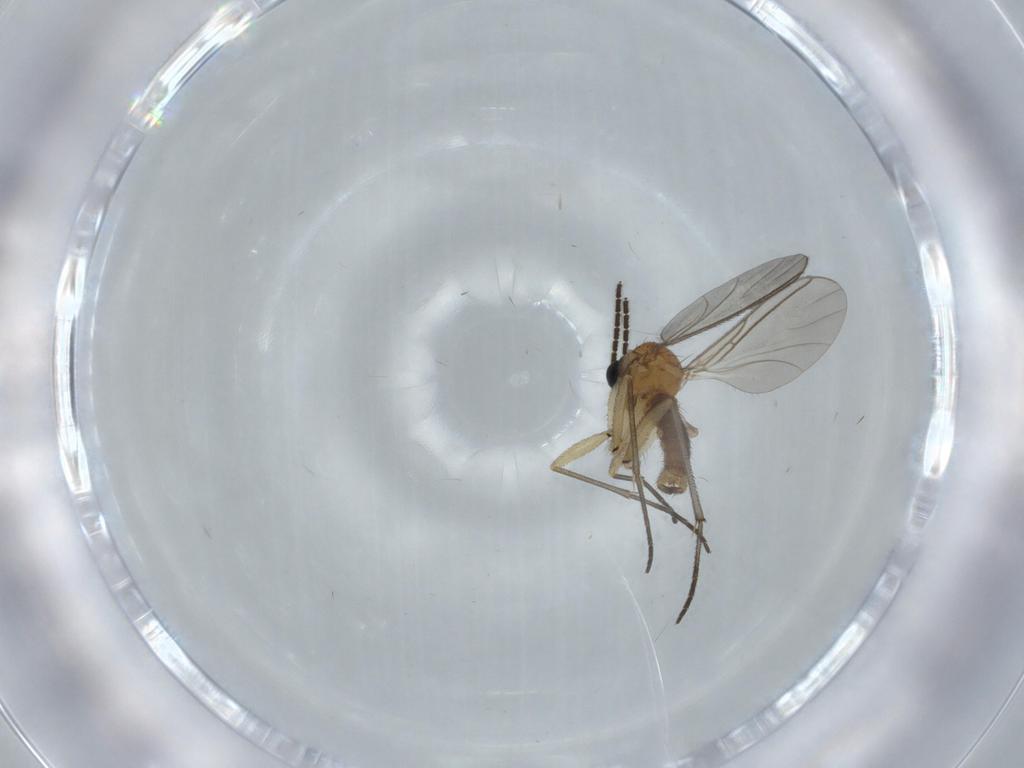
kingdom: Animalia
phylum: Arthropoda
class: Insecta
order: Diptera
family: Sciaridae
